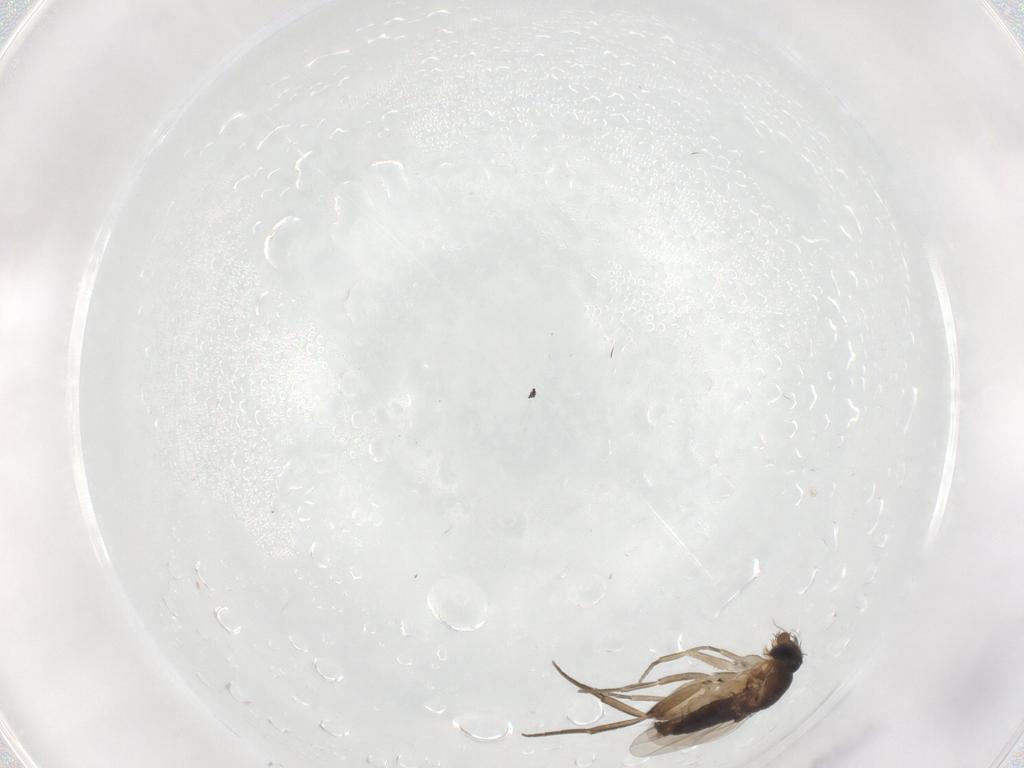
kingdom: Animalia
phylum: Arthropoda
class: Insecta
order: Diptera
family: Phoridae
